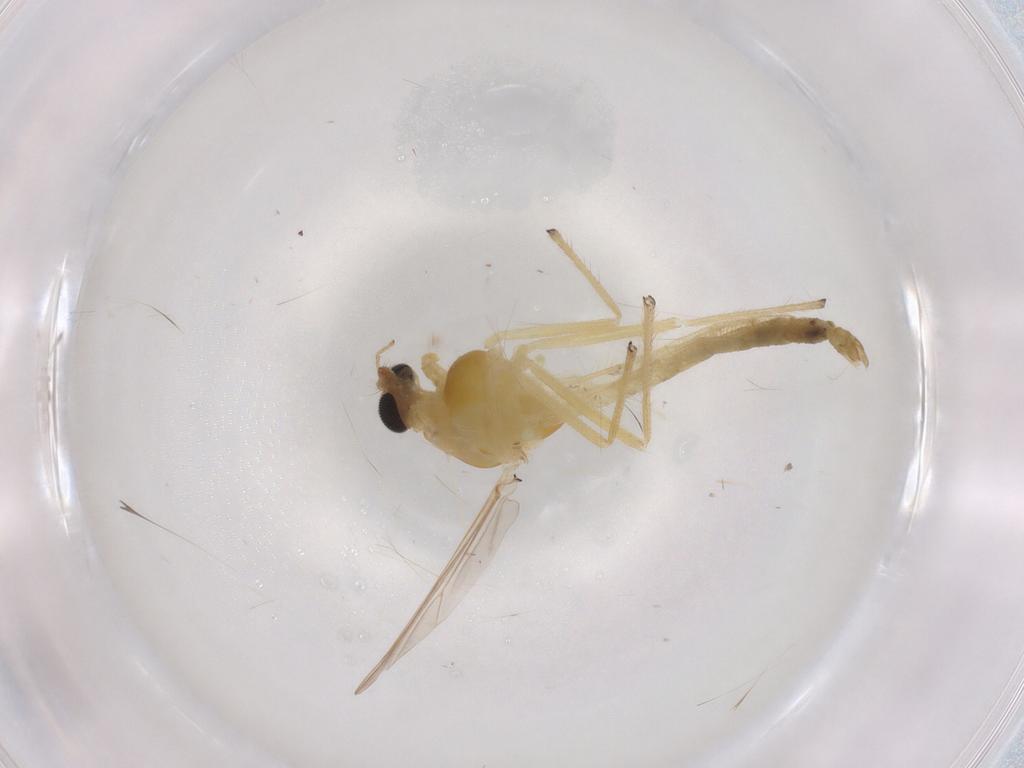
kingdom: Animalia
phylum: Arthropoda
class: Insecta
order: Diptera
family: Chironomidae
